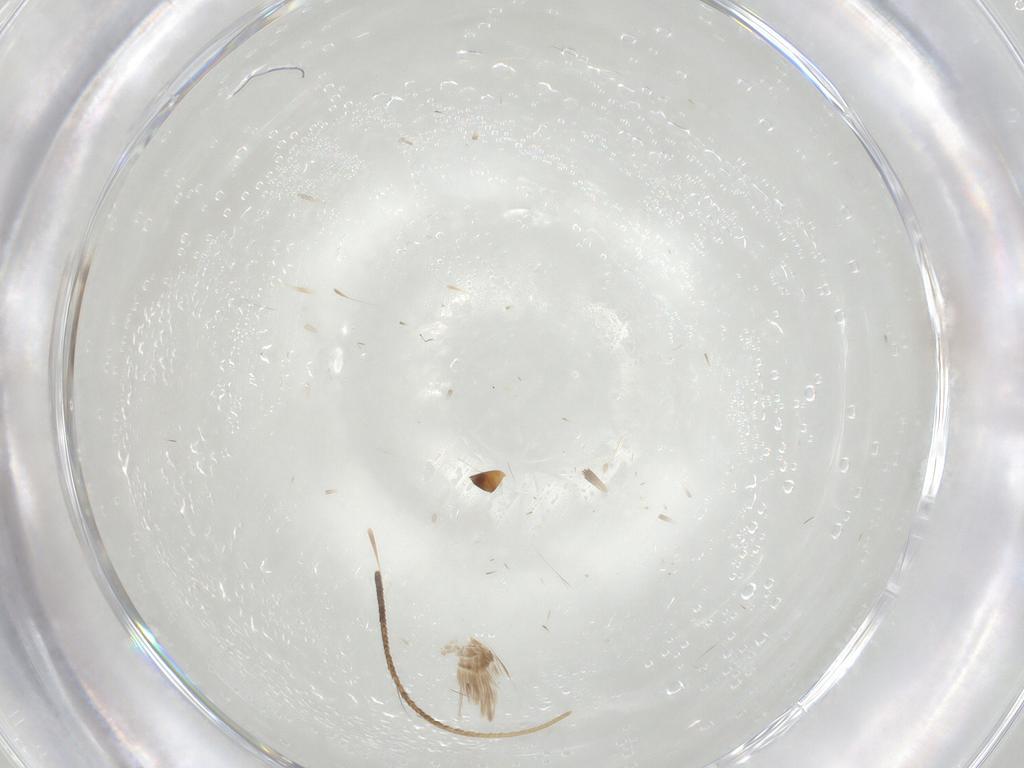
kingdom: Animalia
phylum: Arthropoda
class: Insecta
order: Lepidoptera
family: Cosmopterigidae
